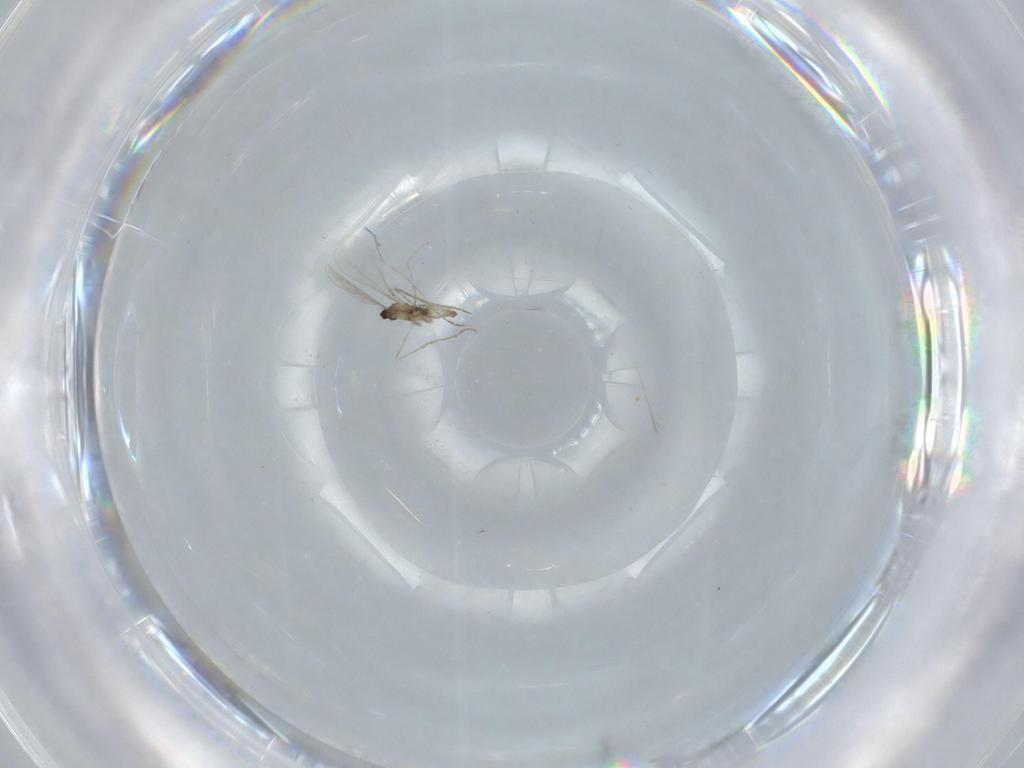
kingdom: Animalia
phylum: Arthropoda
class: Insecta
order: Diptera
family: Cecidomyiidae
